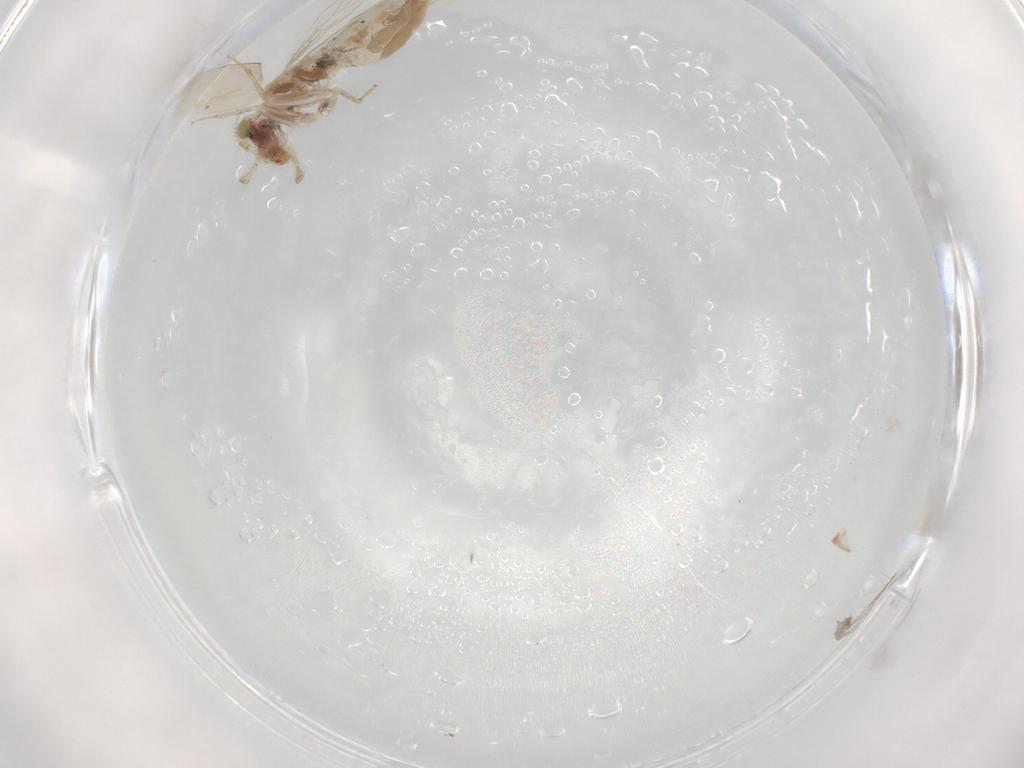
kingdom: Animalia
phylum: Arthropoda
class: Insecta
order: Psocodea
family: Lepidopsocidae
